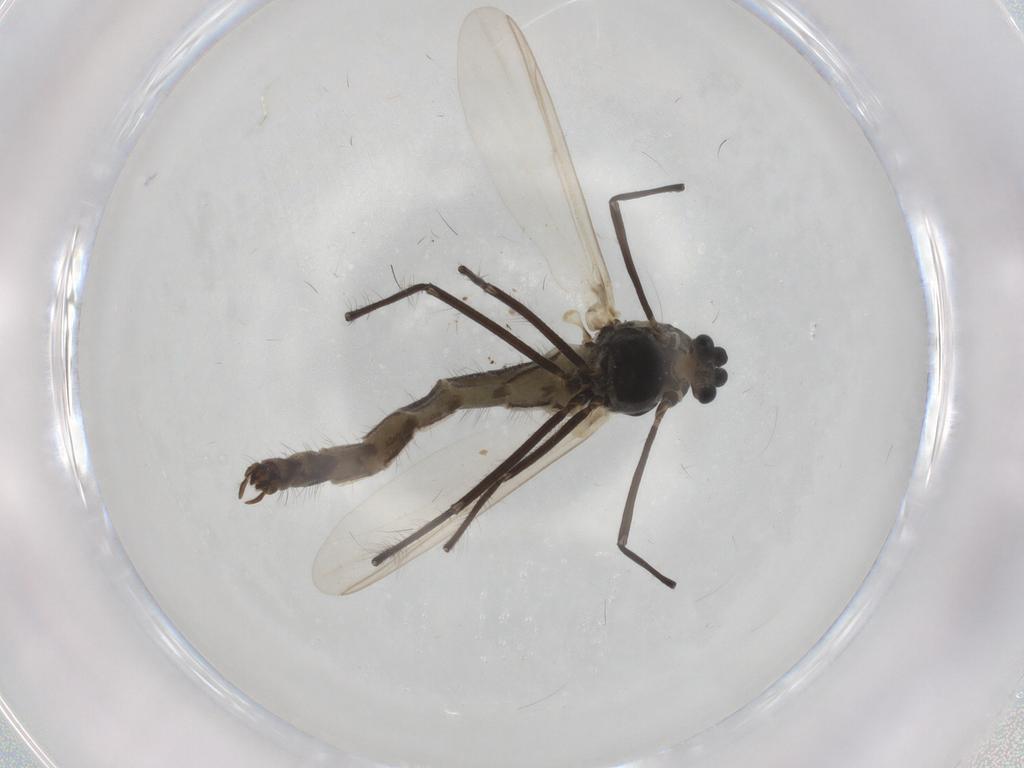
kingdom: Animalia
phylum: Arthropoda
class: Insecta
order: Diptera
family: Chironomidae
